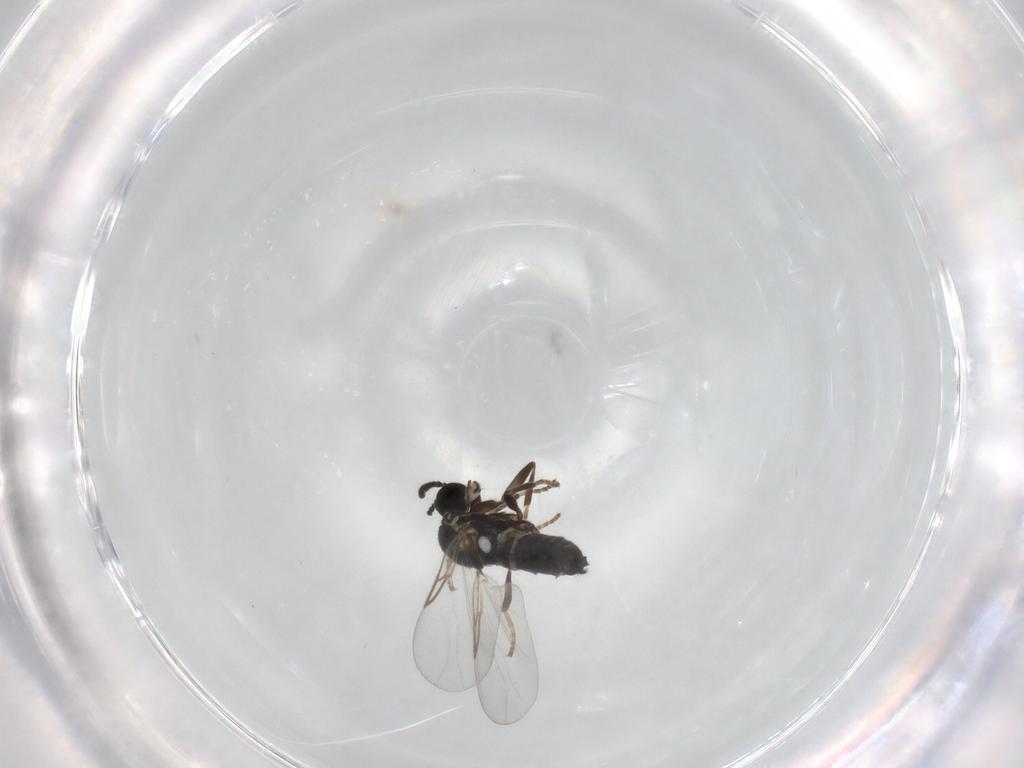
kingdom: Animalia
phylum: Arthropoda
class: Insecta
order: Diptera
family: Scatopsidae
